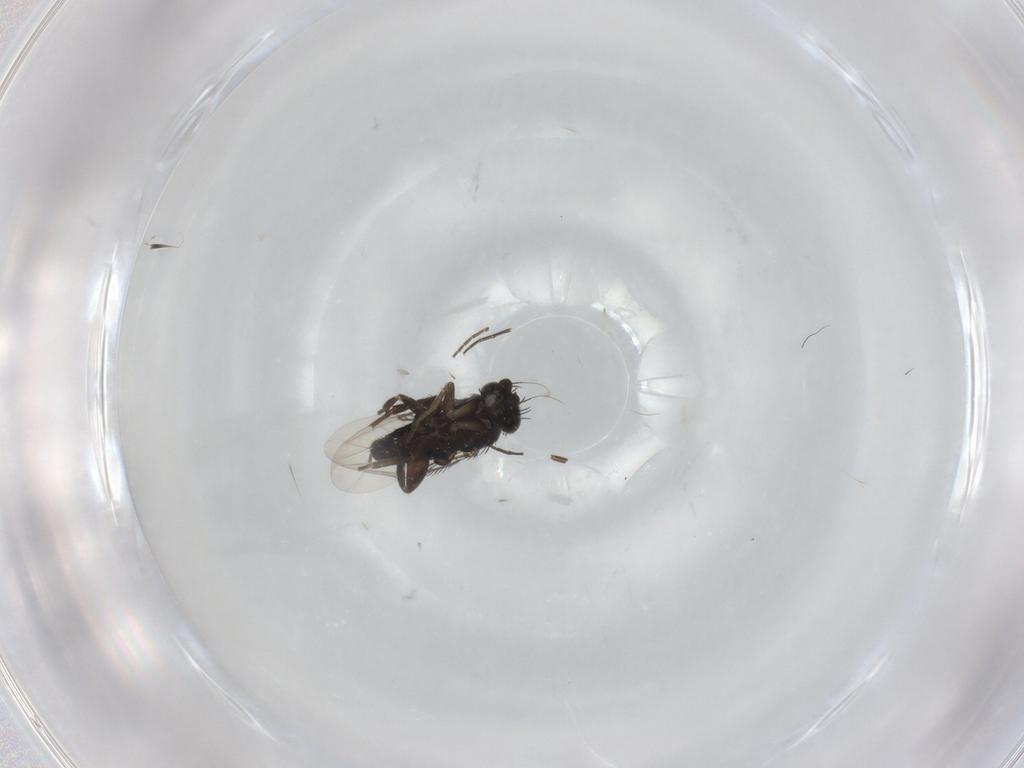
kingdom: Animalia
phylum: Arthropoda
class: Insecta
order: Diptera
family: Phoridae
